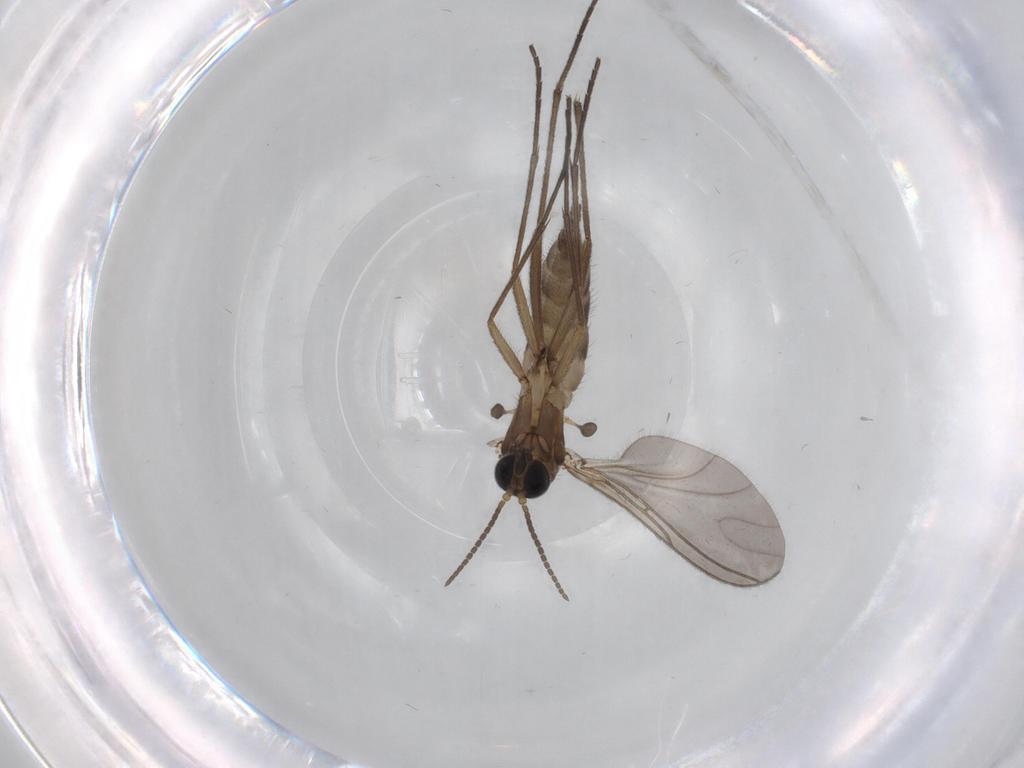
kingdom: Animalia
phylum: Arthropoda
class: Insecta
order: Diptera
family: Sciaridae
